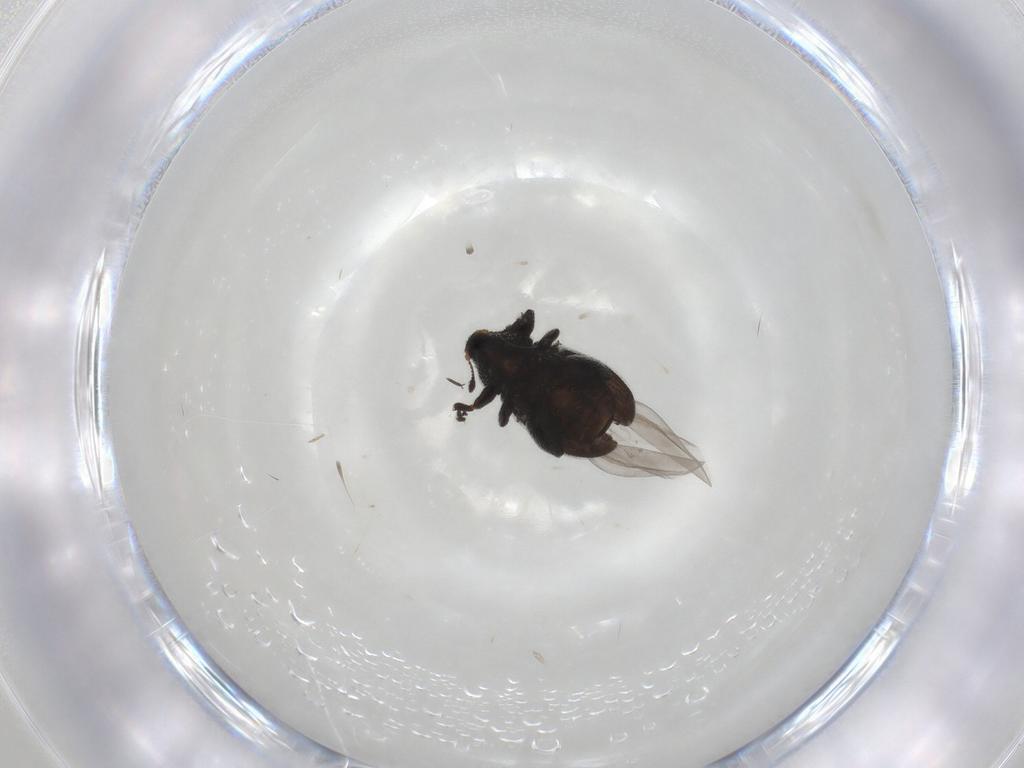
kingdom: Animalia
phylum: Arthropoda
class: Insecta
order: Coleoptera
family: Curculionidae
